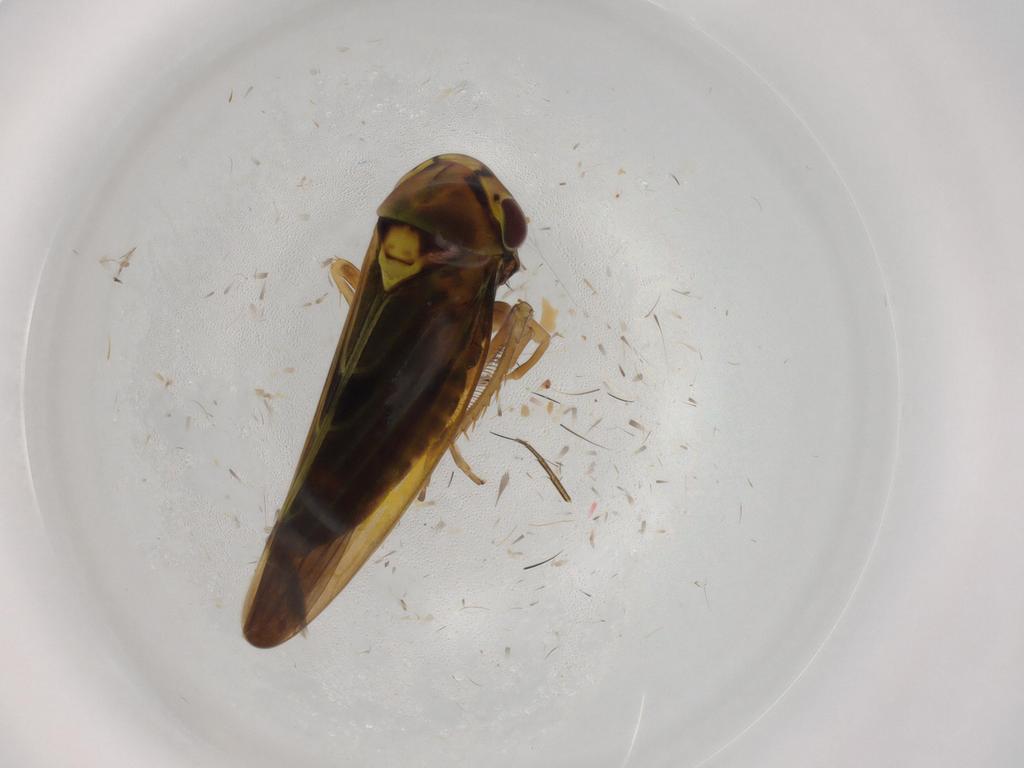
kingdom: Animalia
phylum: Arthropoda
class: Insecta
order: Hemiptera
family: Cicadellidae
